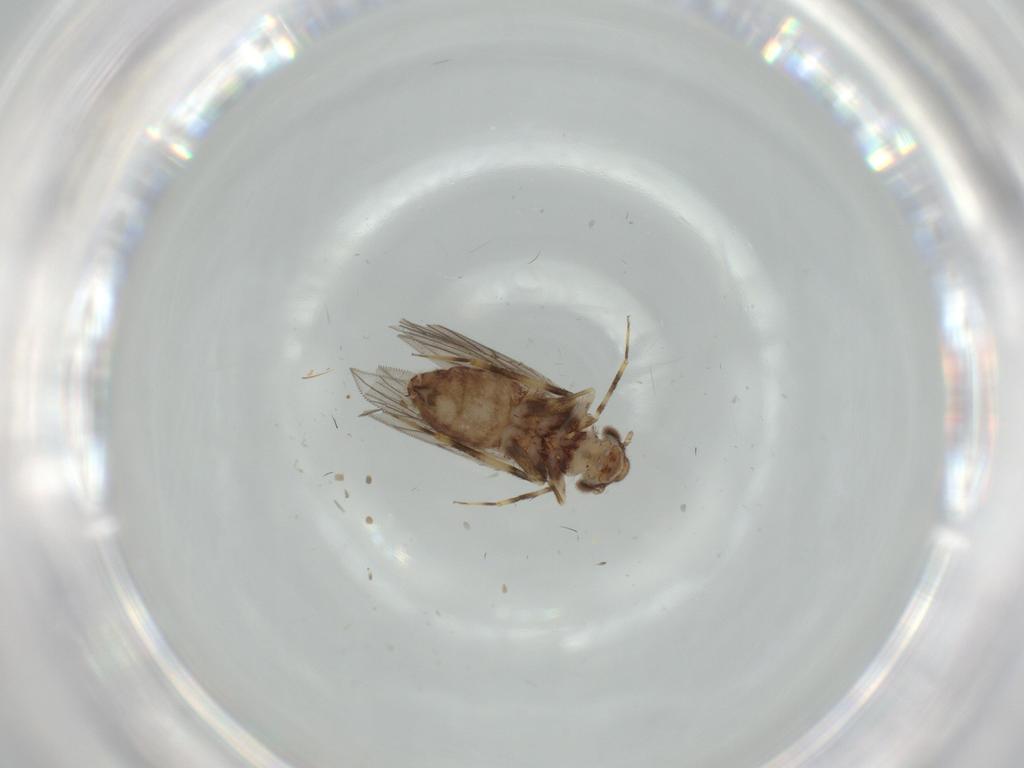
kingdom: Animalia
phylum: Arthropoda
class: Insecta
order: Psocodea
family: Lepidopsocidae
